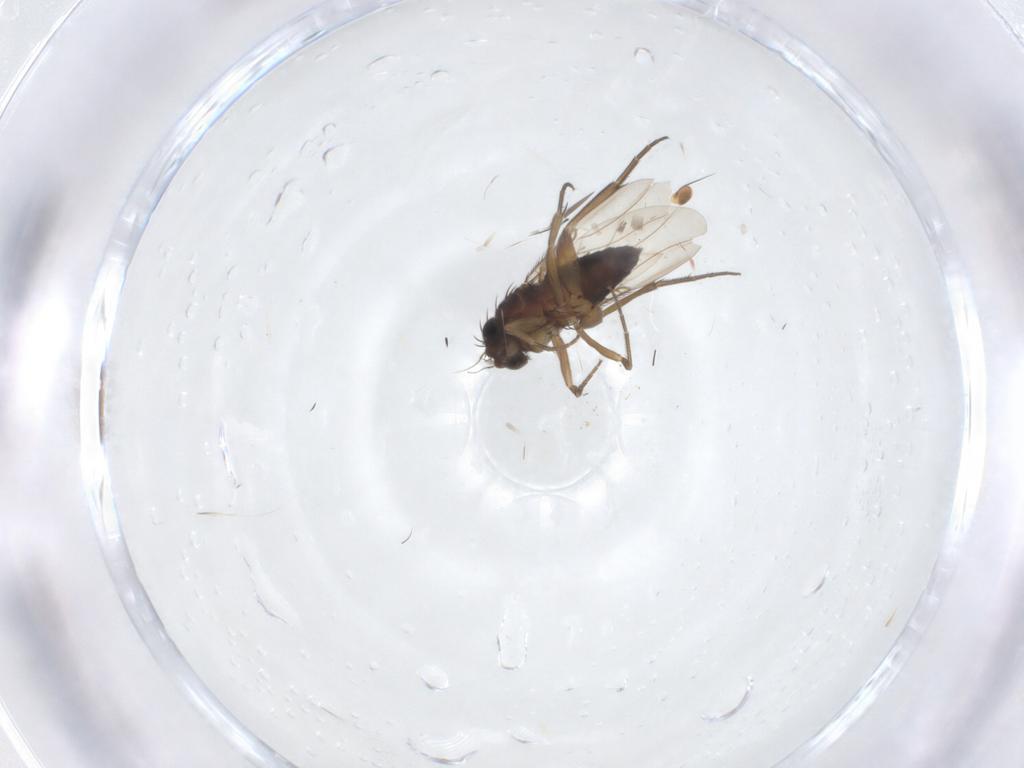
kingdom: Animalia
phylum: Arthropoda
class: Insecta
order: Diptera
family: Phoridae
